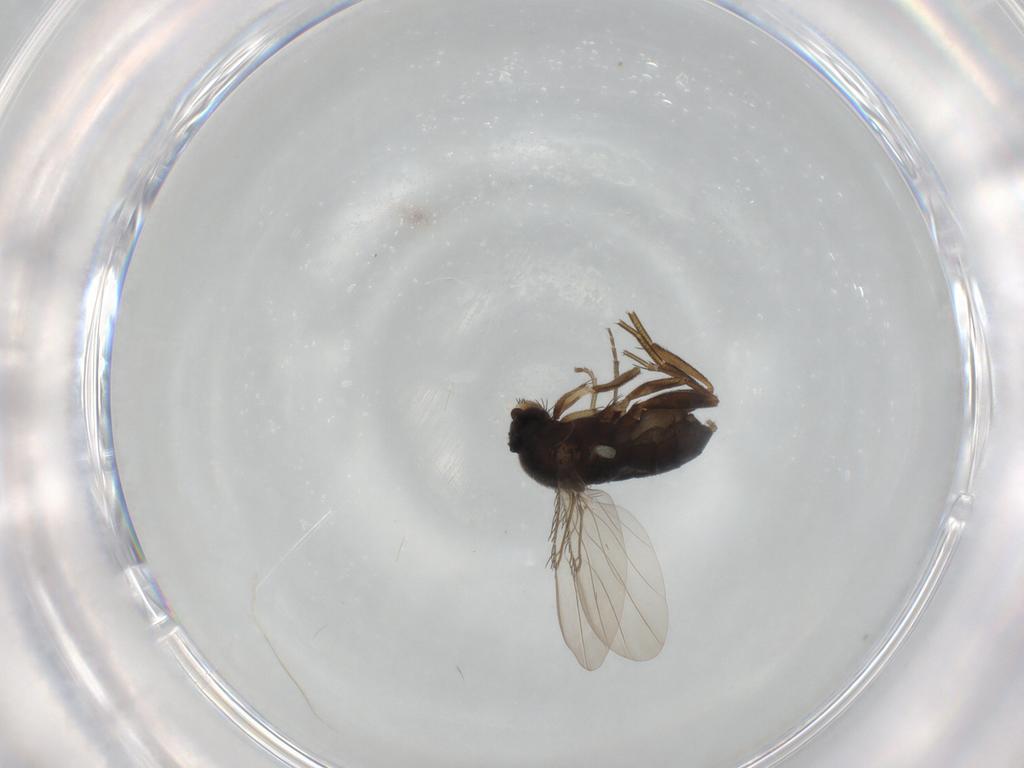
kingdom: Animalia
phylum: Arthropoda
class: Insecta
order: Diptera
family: Phoridae
